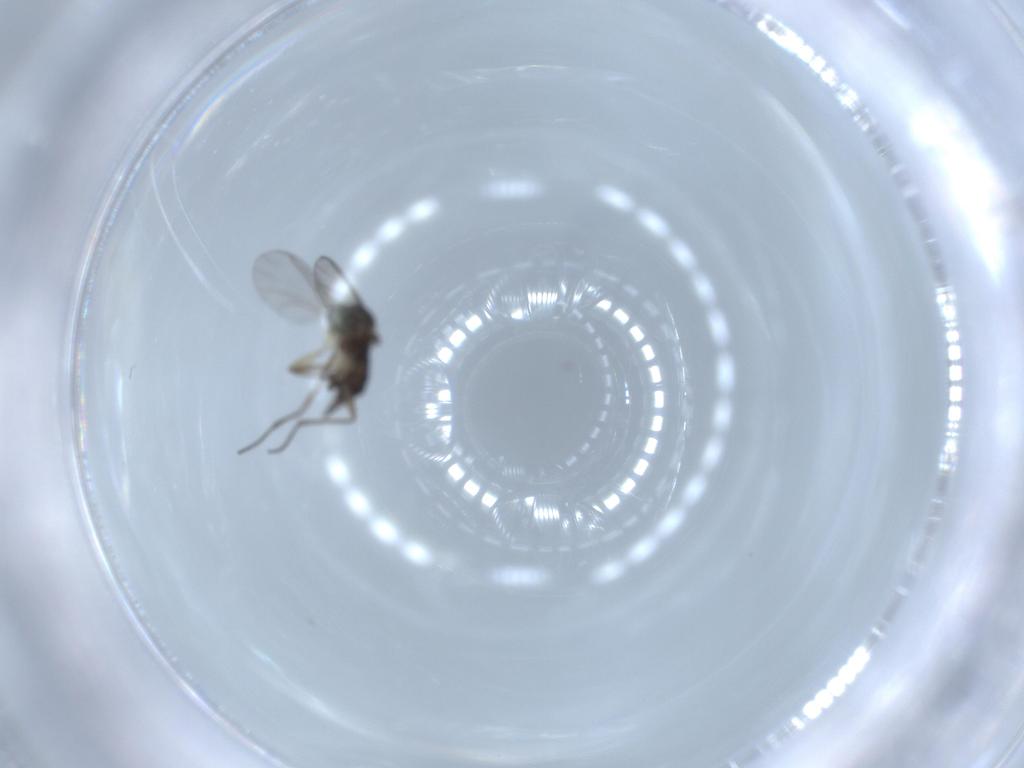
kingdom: Animalia
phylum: Arthropoda
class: Insecta
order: Diptera
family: Sciaridae
